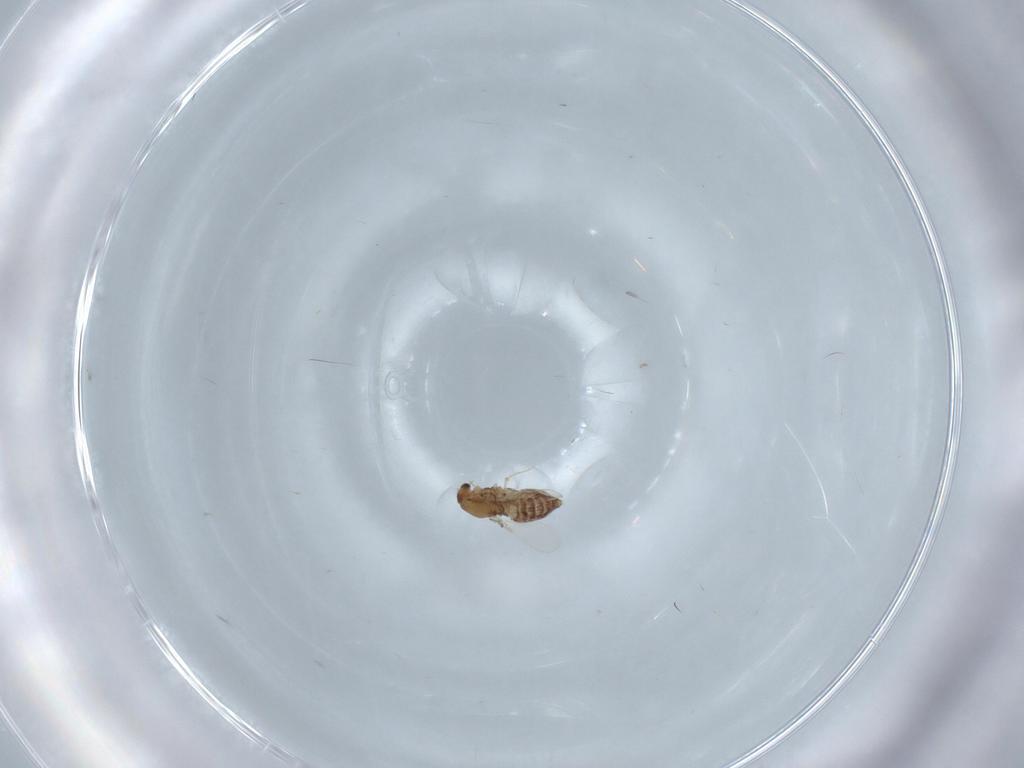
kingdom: Animalia
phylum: Arthropoda
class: Insecta
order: Diptera
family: Chironomidae
